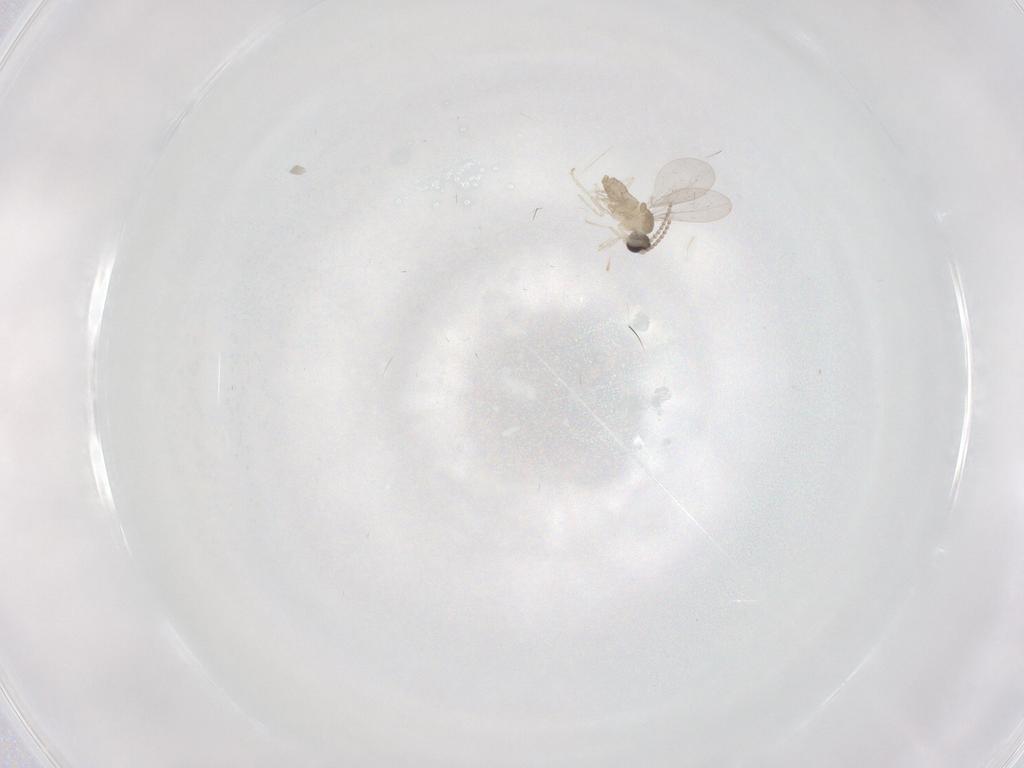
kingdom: Animalia
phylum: Arthropoda
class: Insecta
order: Diptera
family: Cecidomyiidae
